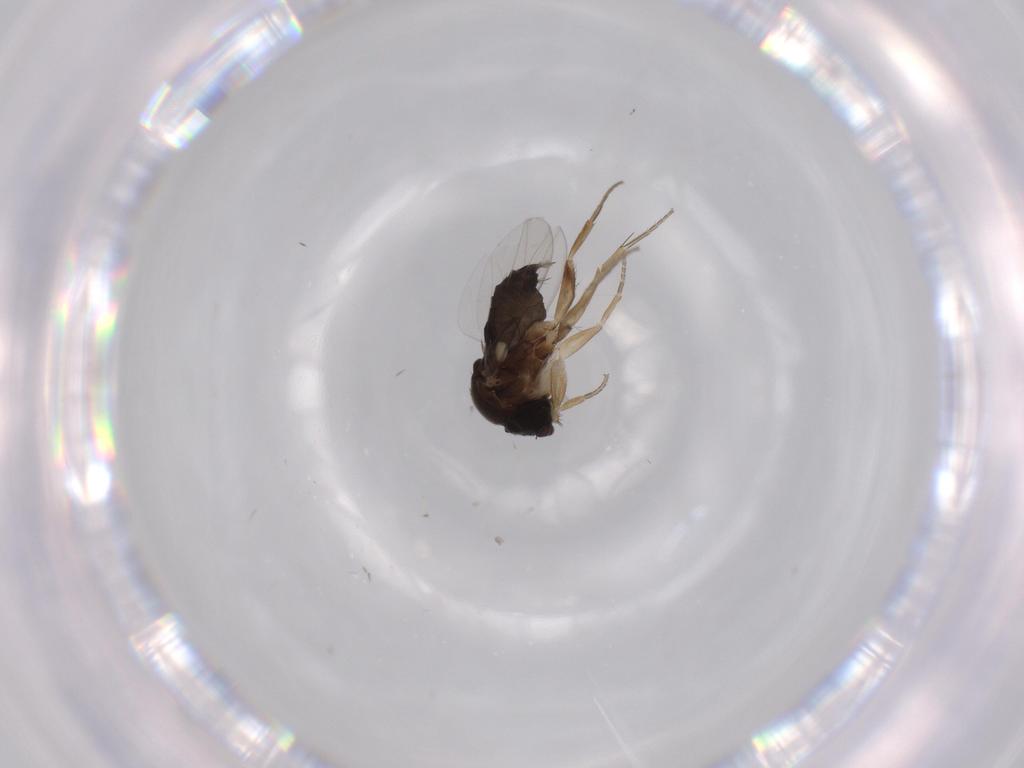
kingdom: Animalia
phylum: Arthropoda
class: Insecta
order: Diptera
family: Phoridae
